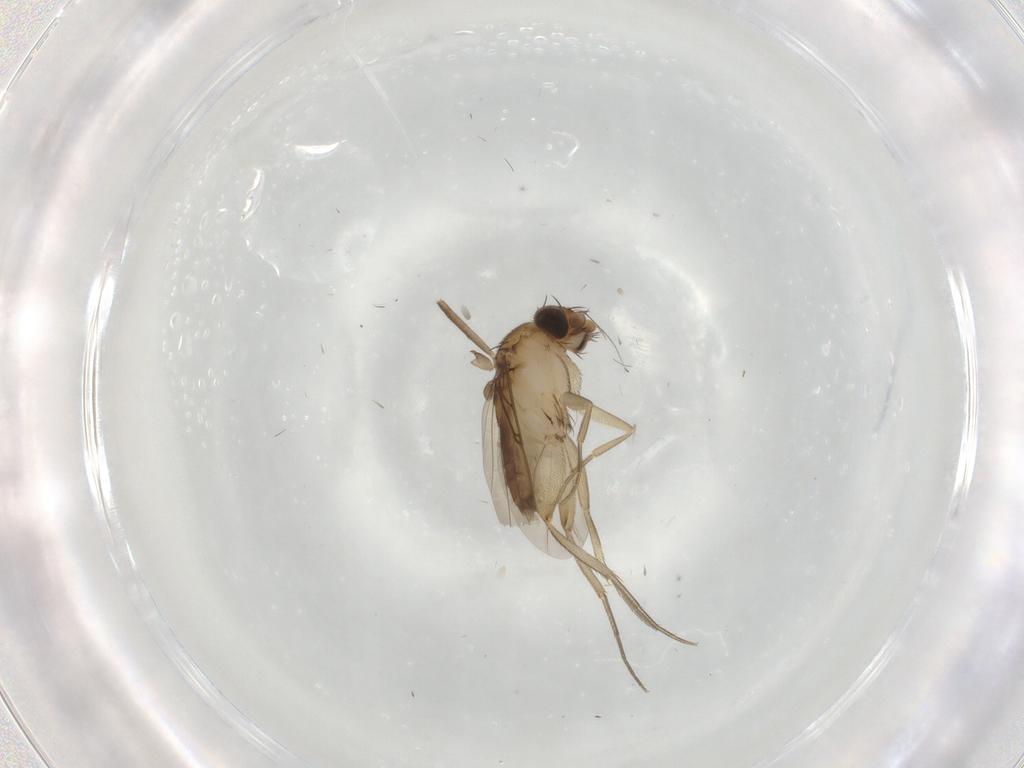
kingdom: Animalia
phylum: Arthropoda
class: Insecta
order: Diptera
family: Phoridae
